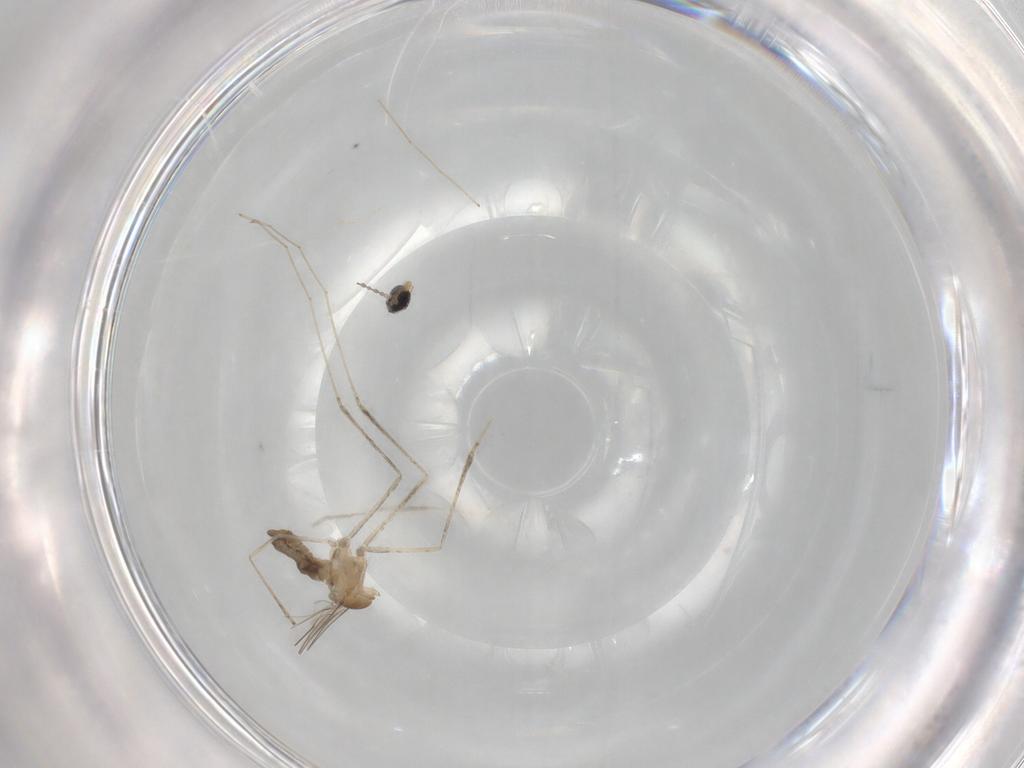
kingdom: Animalia
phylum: Arthropoda
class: Insecta
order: Diptera
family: Cecidomyiidae
